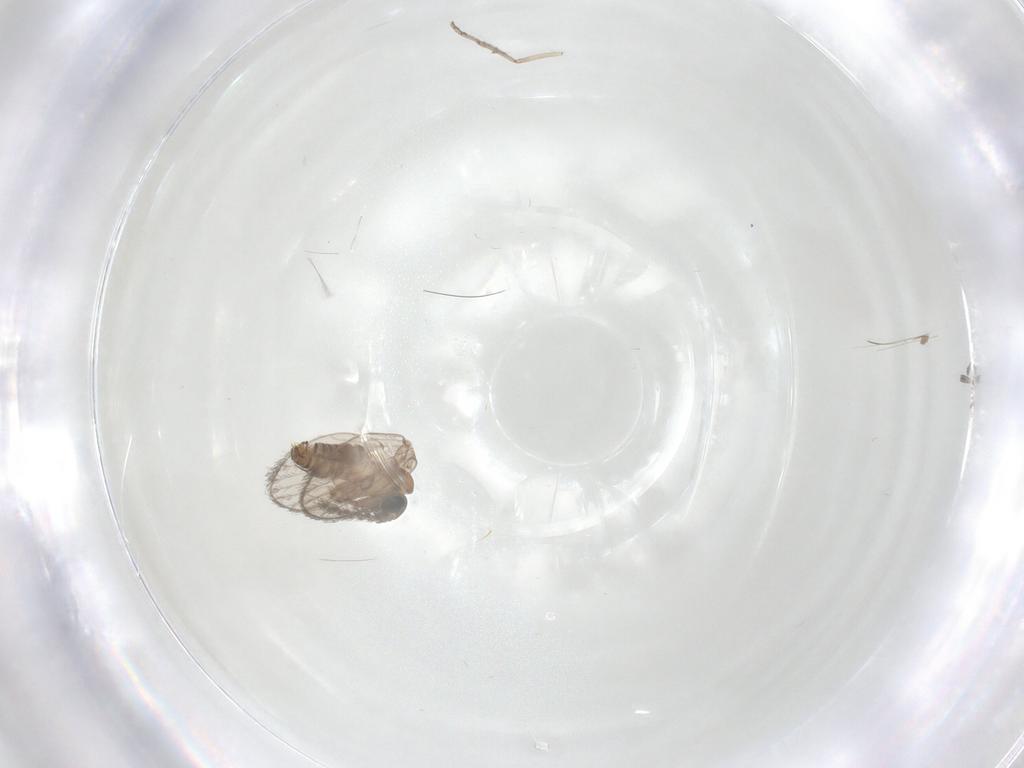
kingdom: Animalia
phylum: Arthropoda
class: Insecta
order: Diptera
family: Psychodidae
